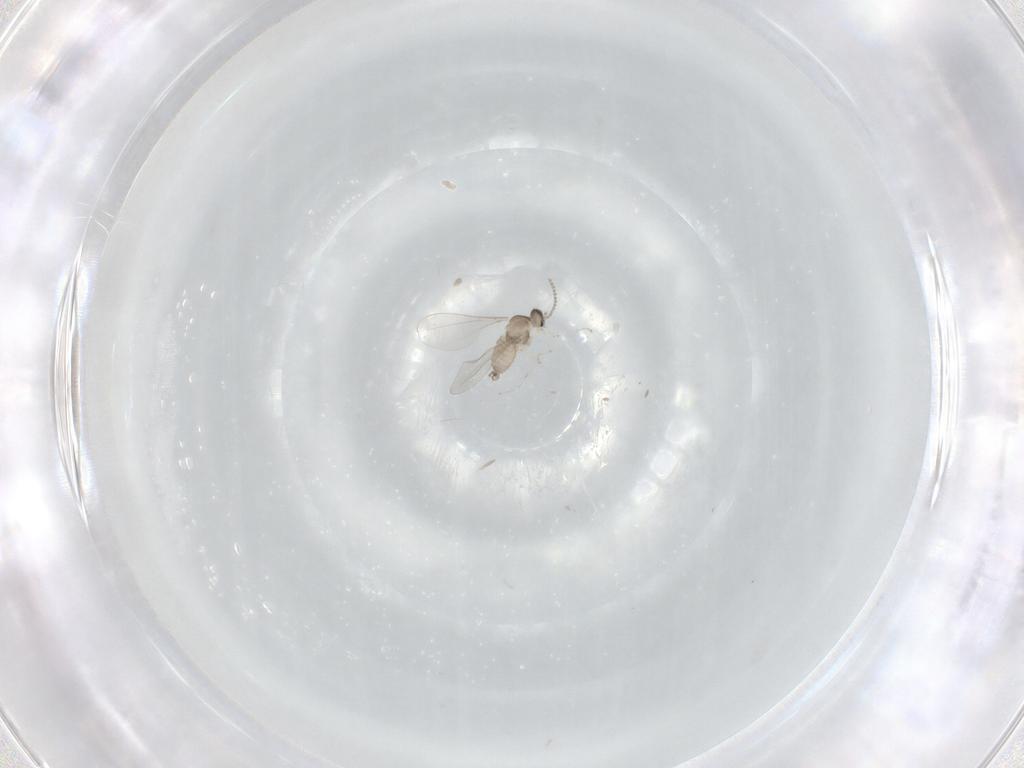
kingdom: Animalia
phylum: Arthropoda
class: Insecta
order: Diptera
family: Cecidomyiidae
